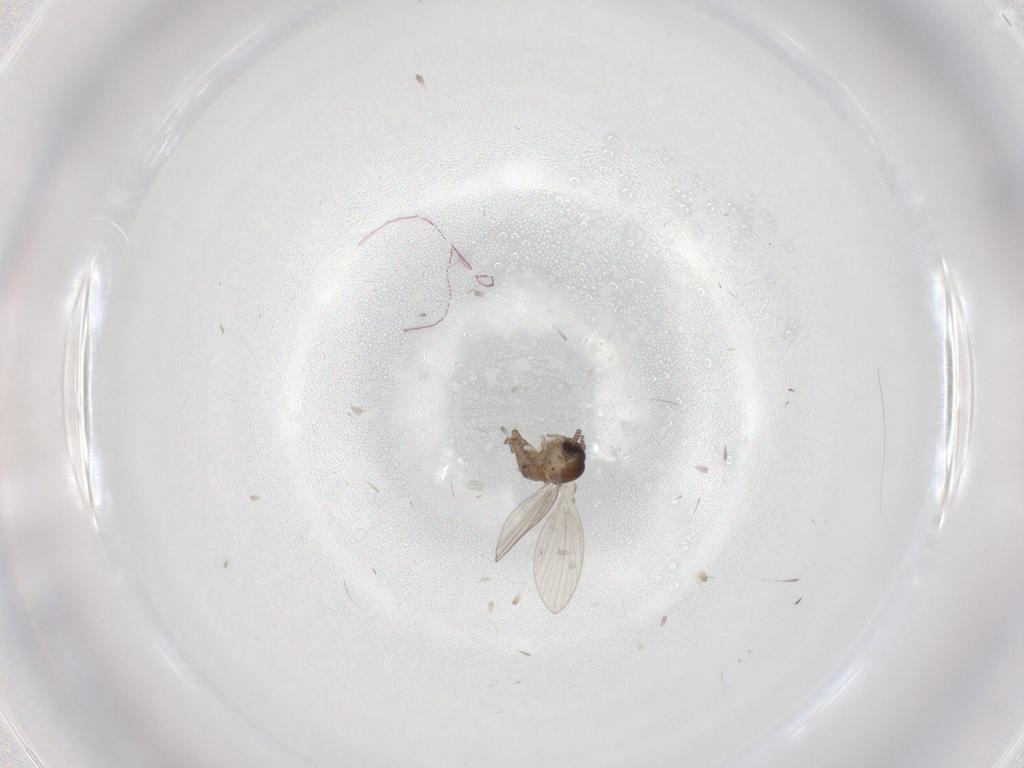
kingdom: Animalia
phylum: Arthropoda
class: Insecta
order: Diptera
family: Psychodidae
